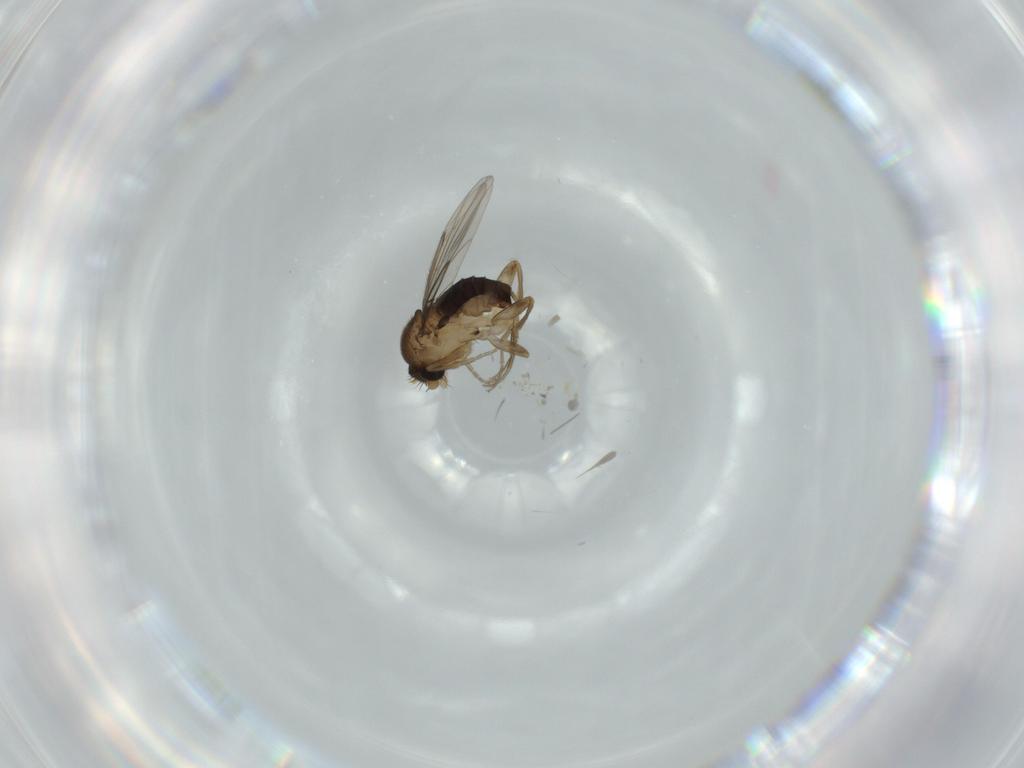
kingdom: Animalia
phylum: Arthropoda
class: Insecta
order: Diptera
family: Phoridae
